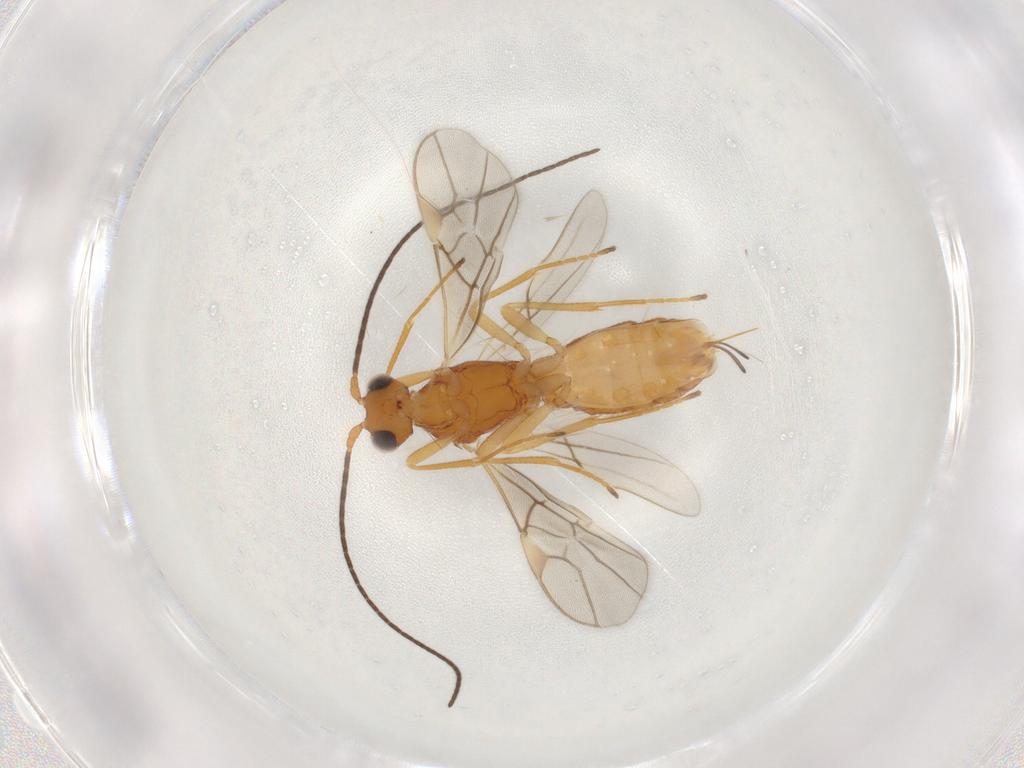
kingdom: Animalia
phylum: Arthropoda
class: Insecta
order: Hymenoptera
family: Braconidae
